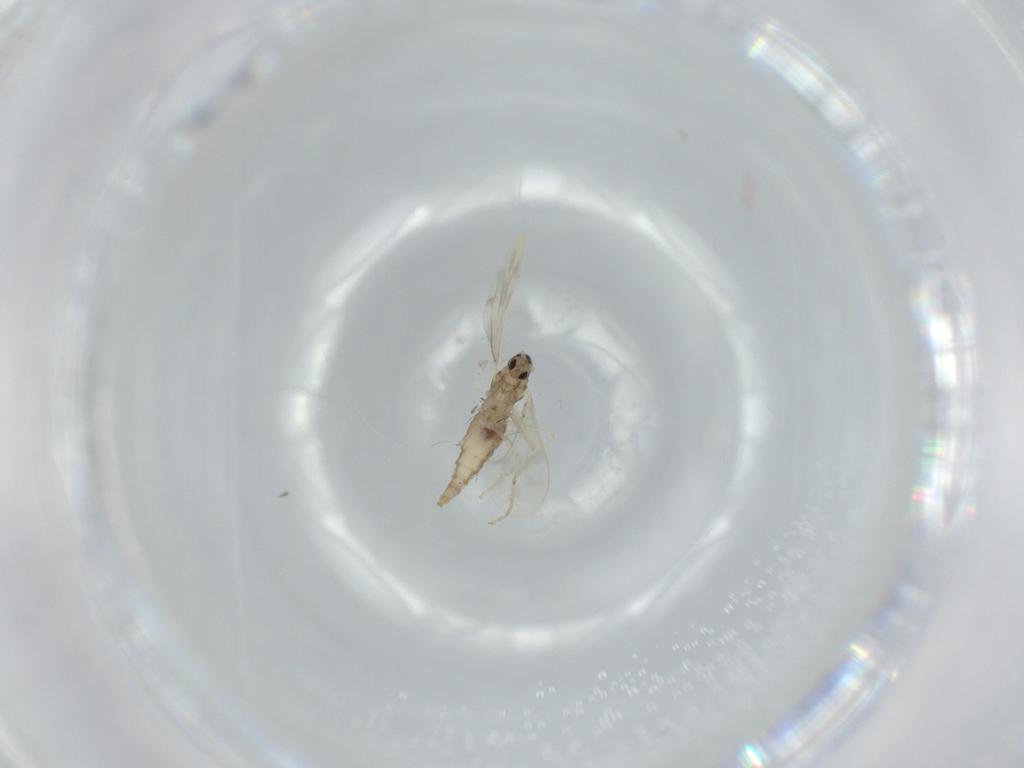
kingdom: Animalia
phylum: Arthropoda
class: Insecta
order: Diptera
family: Cecidomyiidae
